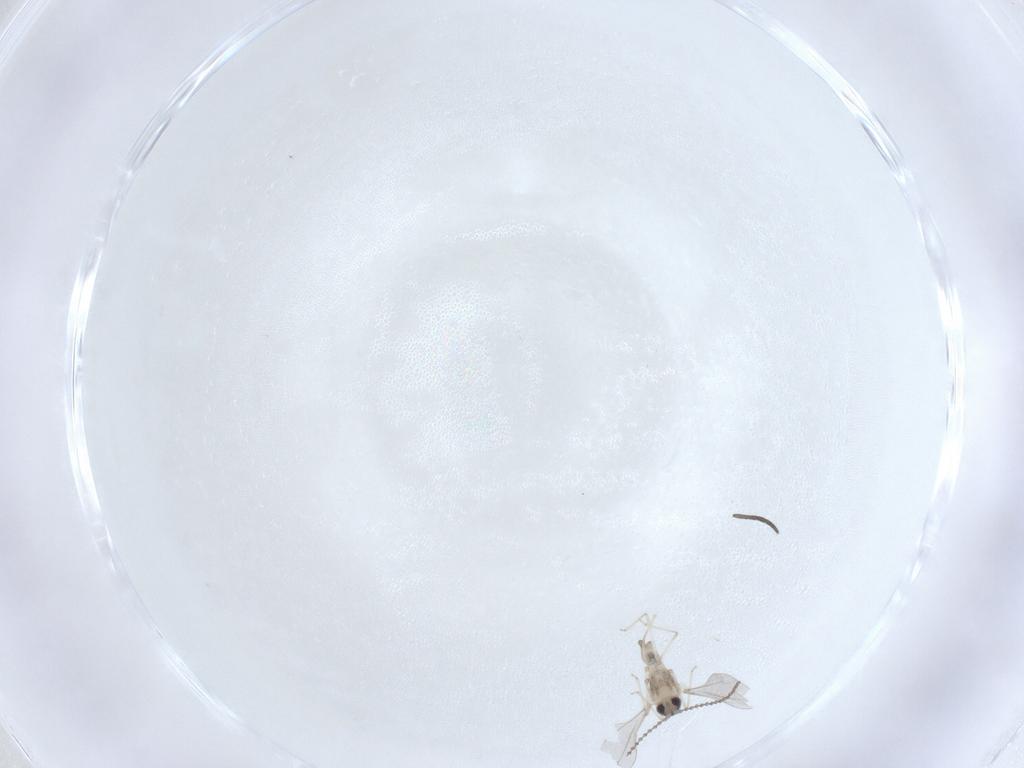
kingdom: Animalia
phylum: Arthropoda
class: Insecta
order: Diptera
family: Cecidomyiidae
